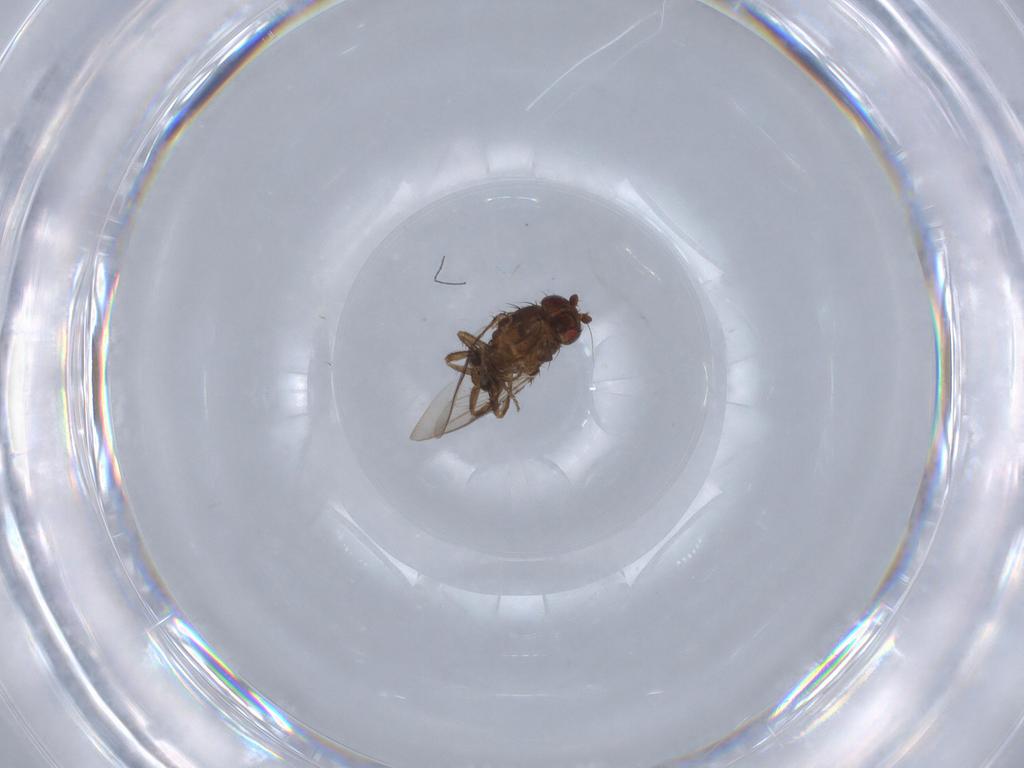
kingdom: Animalia
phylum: Arthropoda
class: Insecta
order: Diptera
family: Sphaeroceridae
